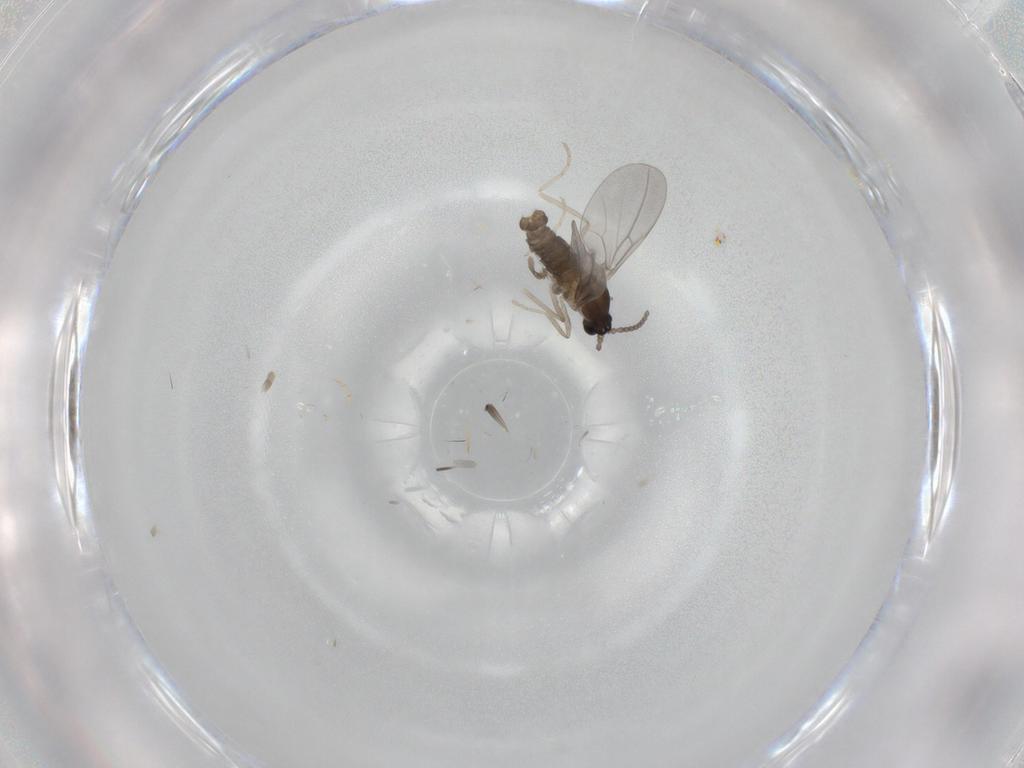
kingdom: Animalia
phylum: Arthropoda
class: Insecta
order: Diptera
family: Cecidomyiidae
